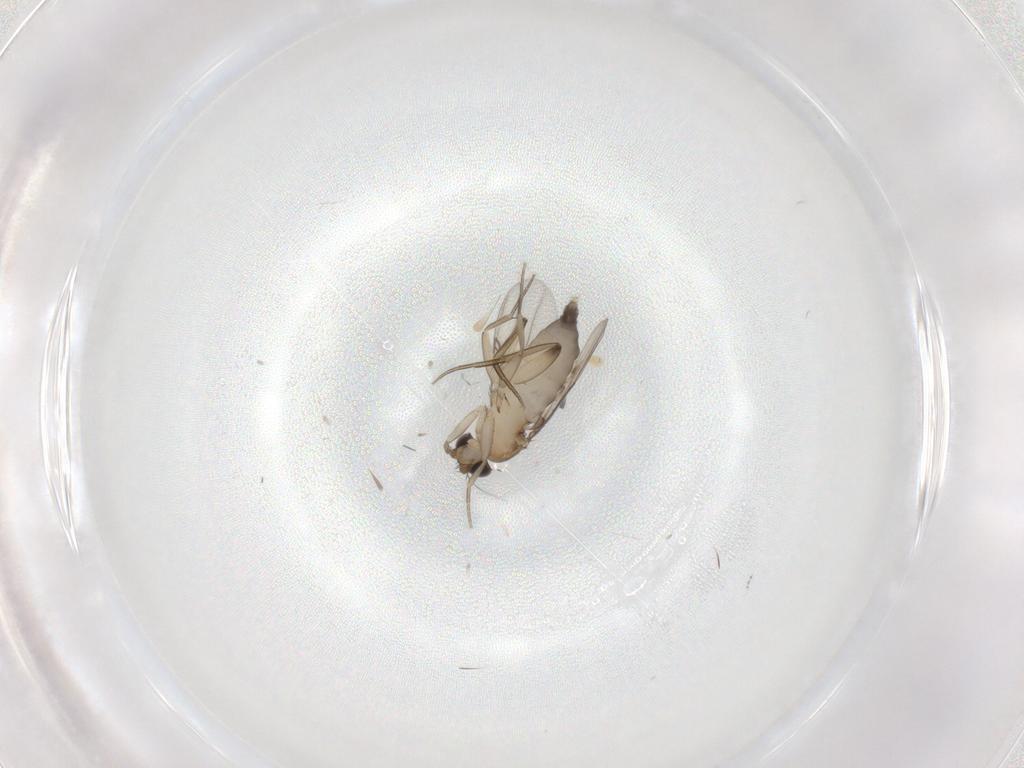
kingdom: Animalia
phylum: Arthropoda
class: Insecta
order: Diptera
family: Phoridae
